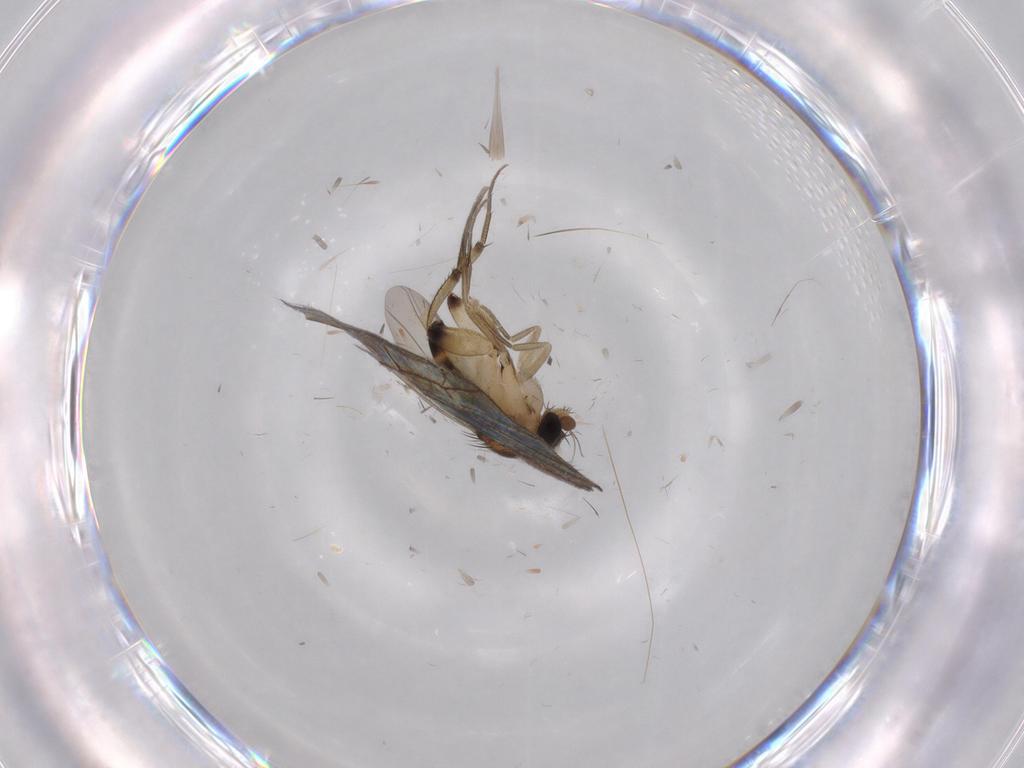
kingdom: Animalia
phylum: Arthropoda
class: Insecta
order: Diptera
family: Phoridae
